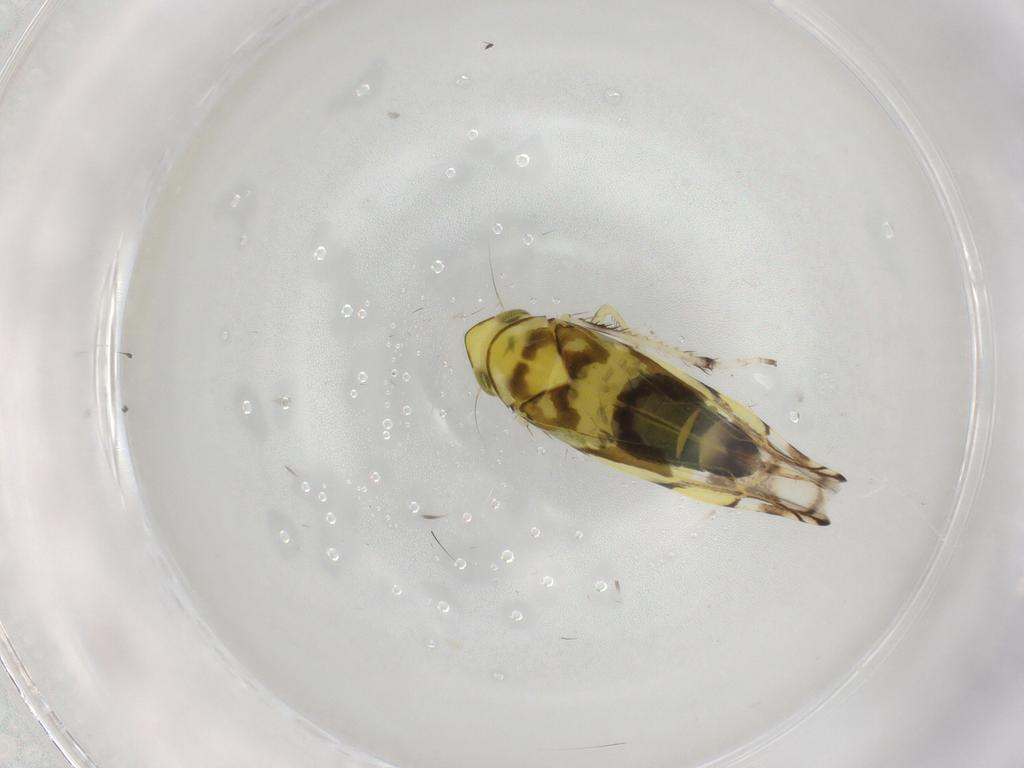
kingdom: Animalia
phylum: Arthropoda
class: Insecta
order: Hemiptera
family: Cicadellidae
